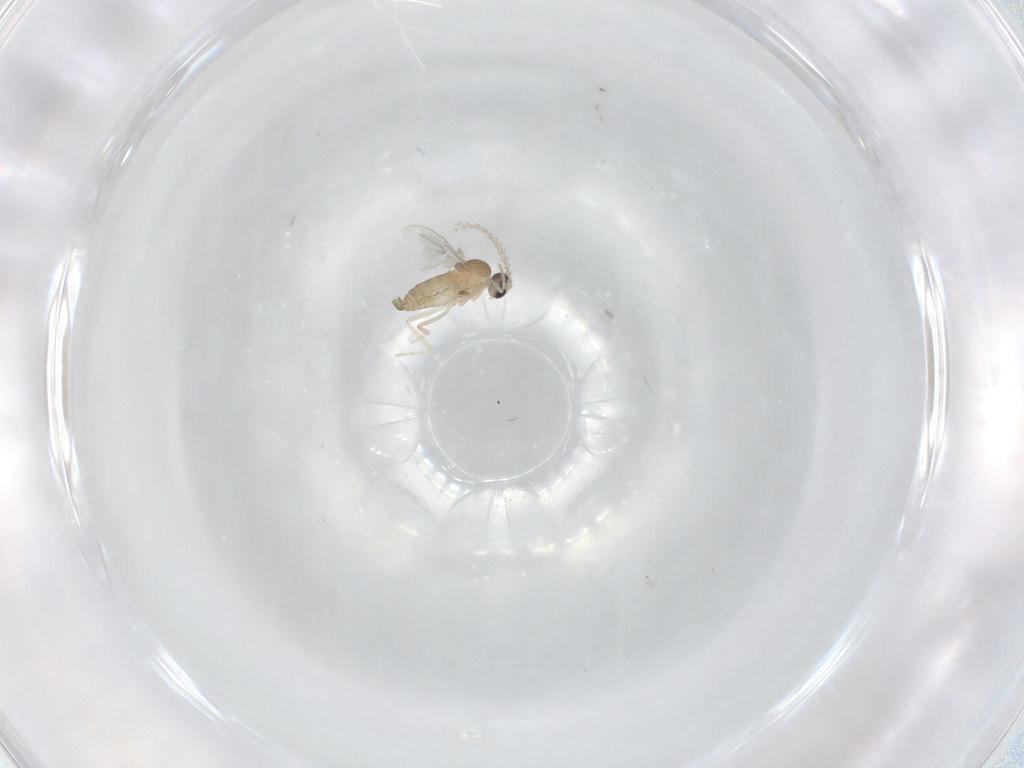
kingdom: Animalia
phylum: Arthropoda
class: Insecta
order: Diptera
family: Cecidomyiidae
